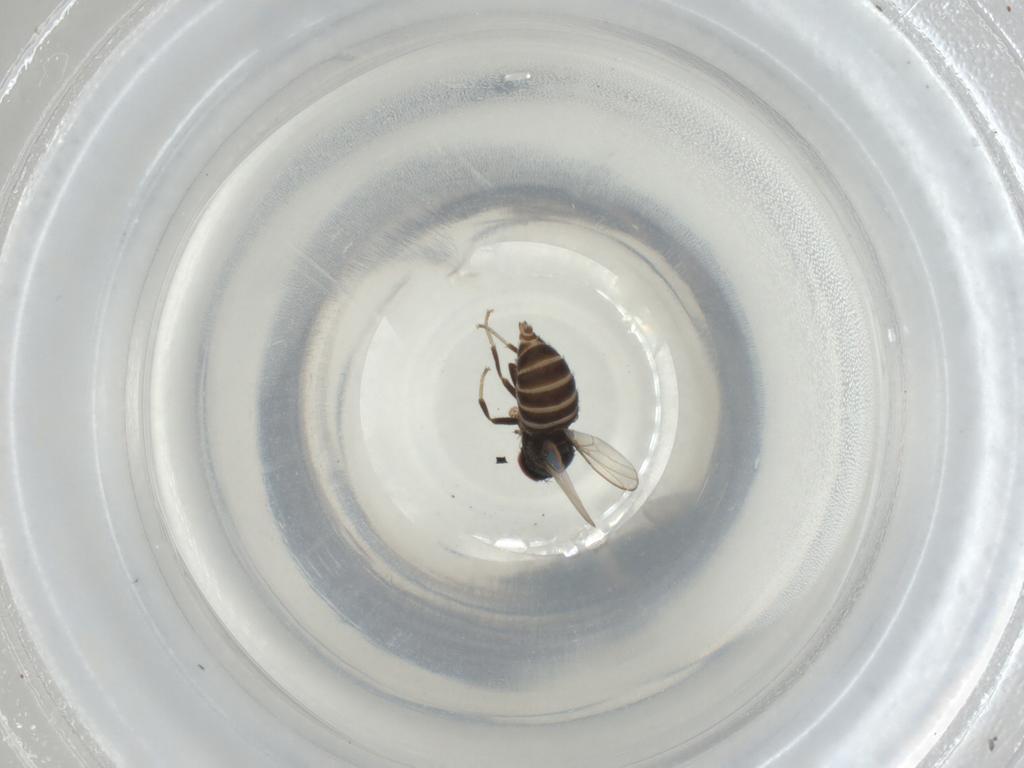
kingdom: Animalia
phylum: Arthropoda
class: Insecta
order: Diptera
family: Drosophilidae
